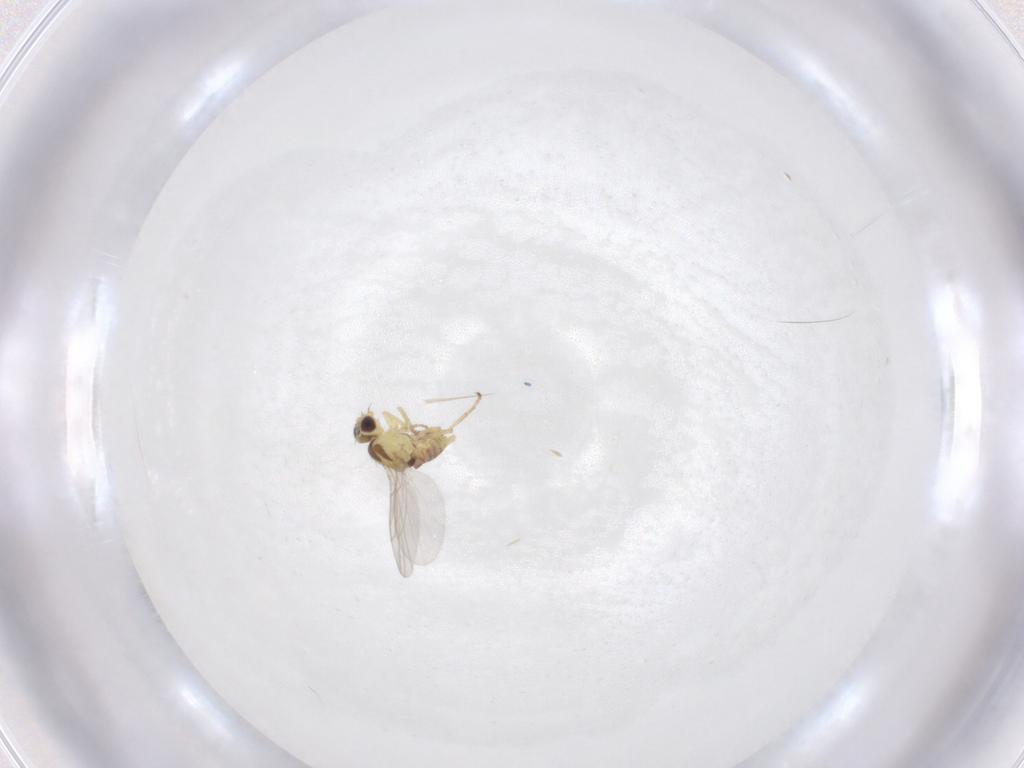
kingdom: Animalia
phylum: Arthropoda
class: Insecta
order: Diptera
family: Agromyzidae
